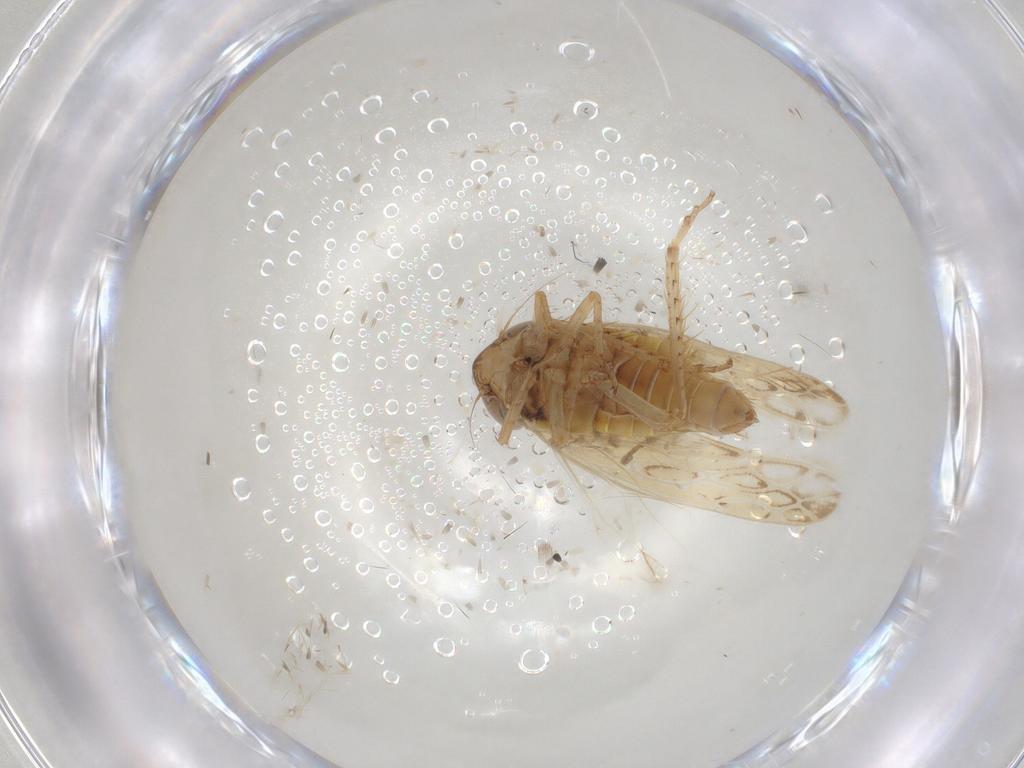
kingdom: Animalia
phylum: Arthropoda
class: Insecta
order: Hemiptera
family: Cicadellidae
